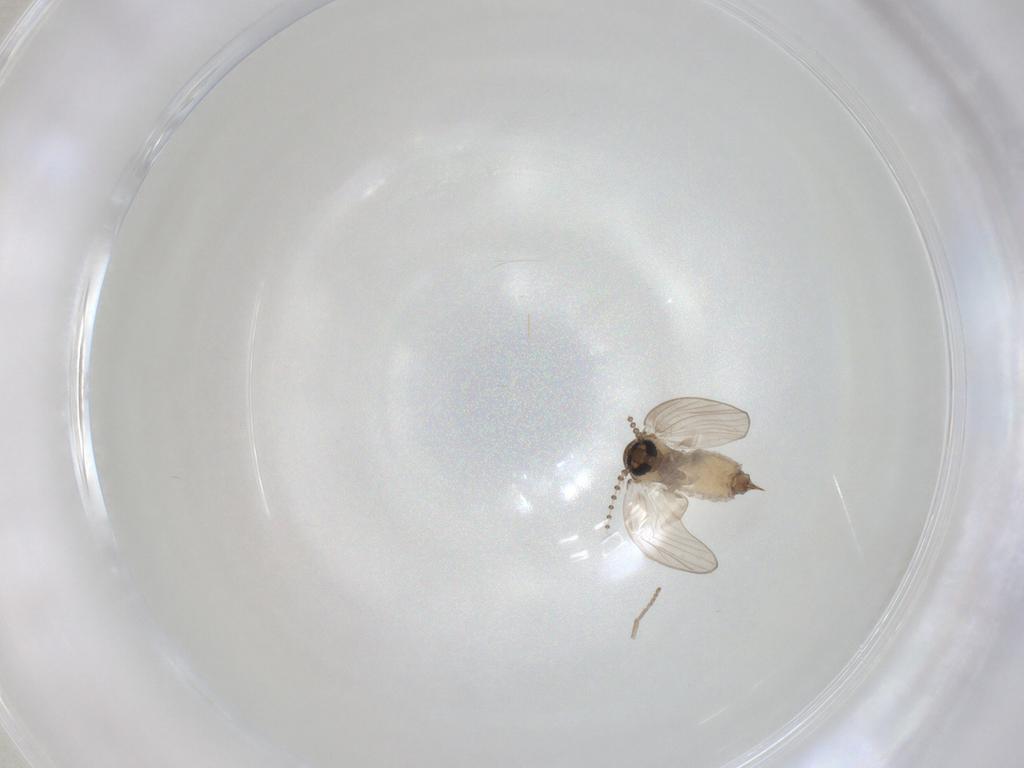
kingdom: Animalia
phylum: Arthropoda
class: Insecta
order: Diptera
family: Psychodidae
